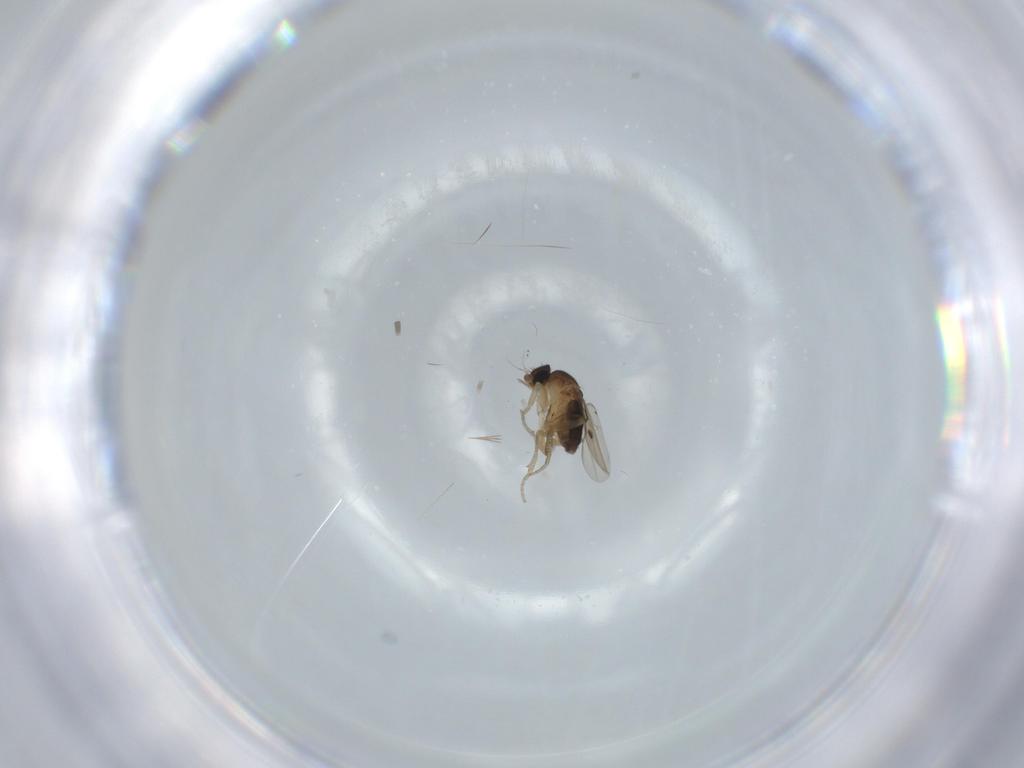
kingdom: Animalia
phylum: Arthropoda
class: Insecta
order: Diptera
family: Phoridae
